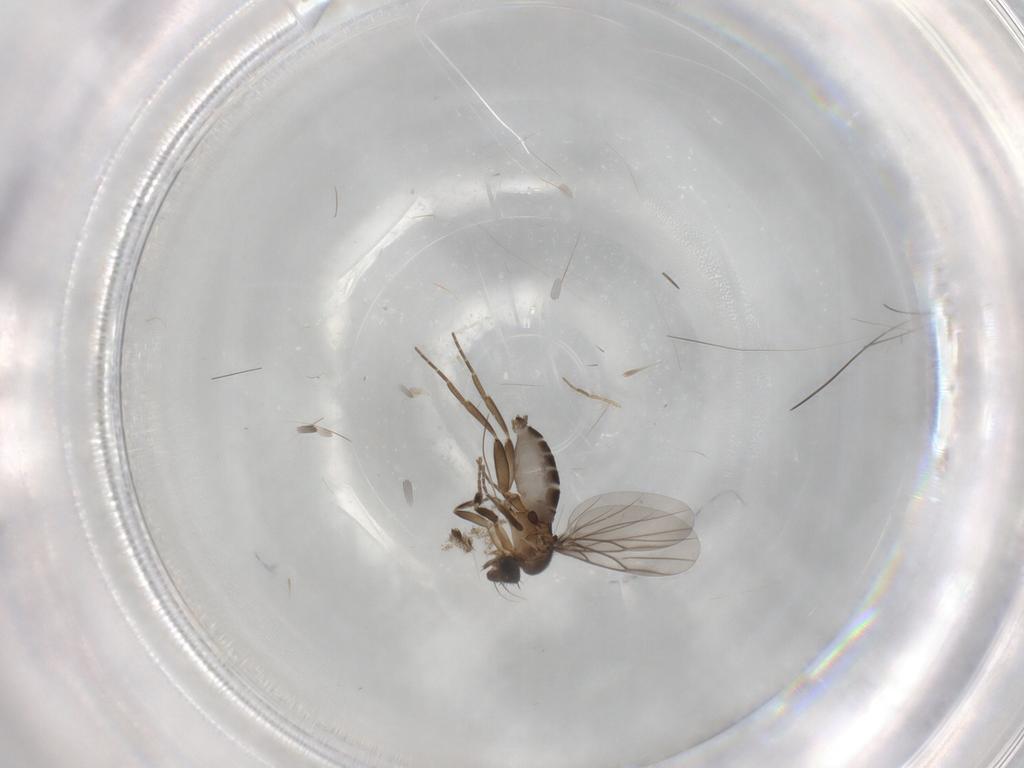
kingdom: Animalia
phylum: Arthropoda
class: Insecta
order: Diptera
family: Phoridae
